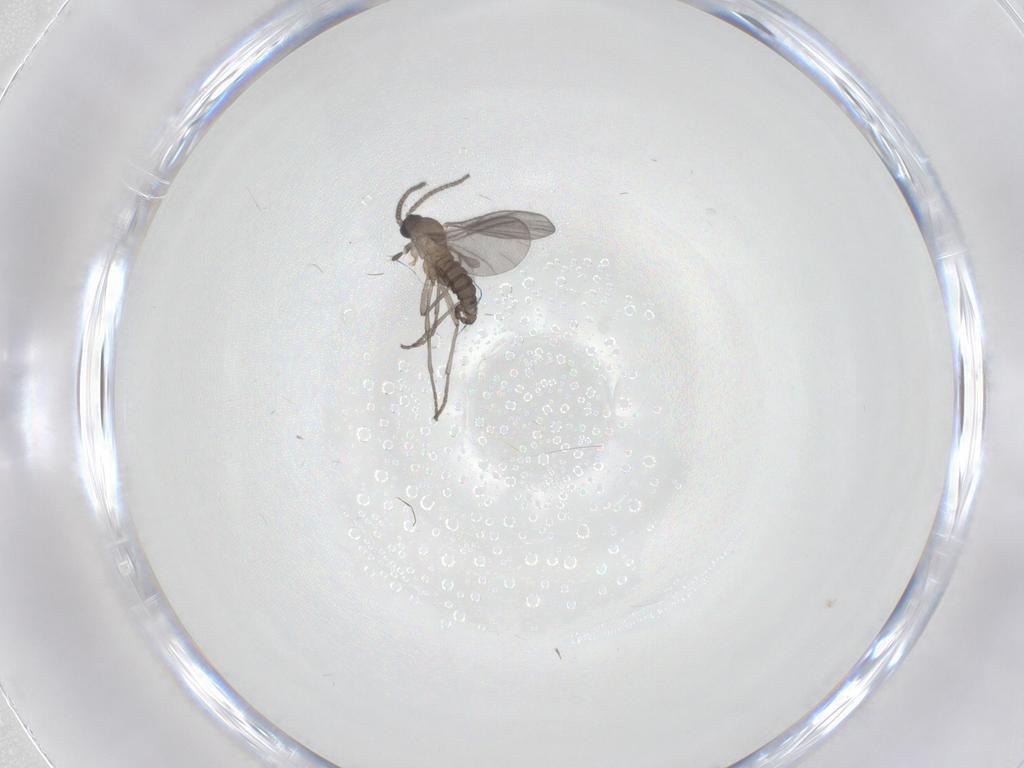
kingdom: Animalia
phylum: Arthropoda
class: Insecta
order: Diptera
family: Sciaridae
